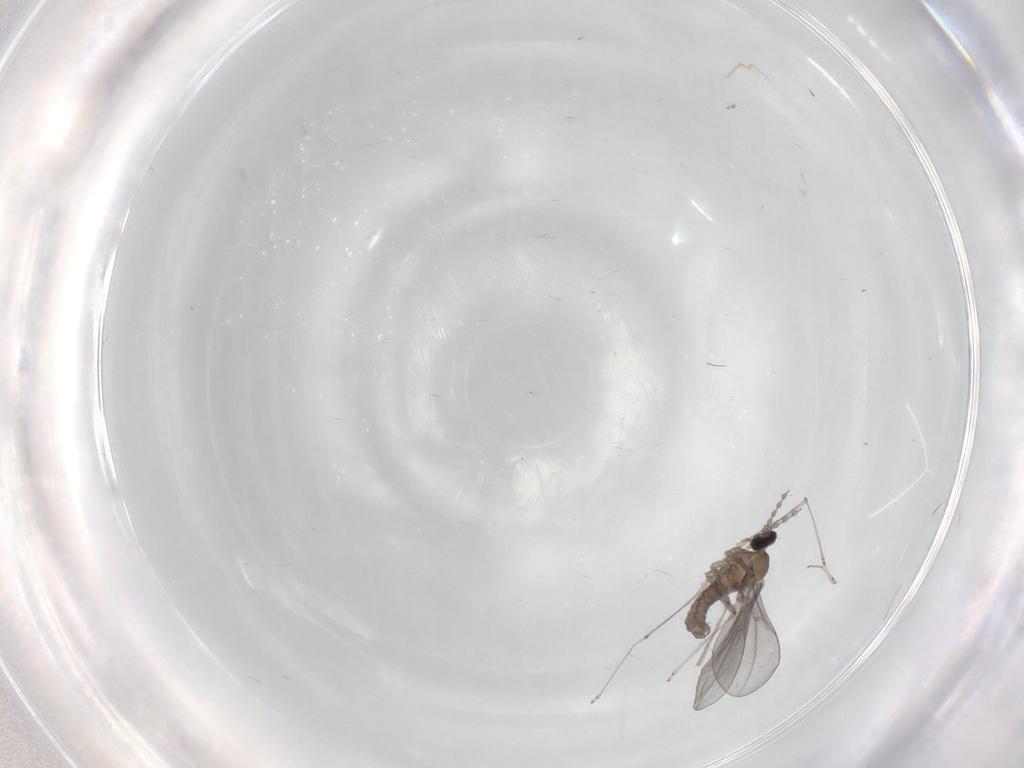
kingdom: Animalia
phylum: Arthropoda
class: Insecta
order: Diptera
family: Cecidomyiidae
